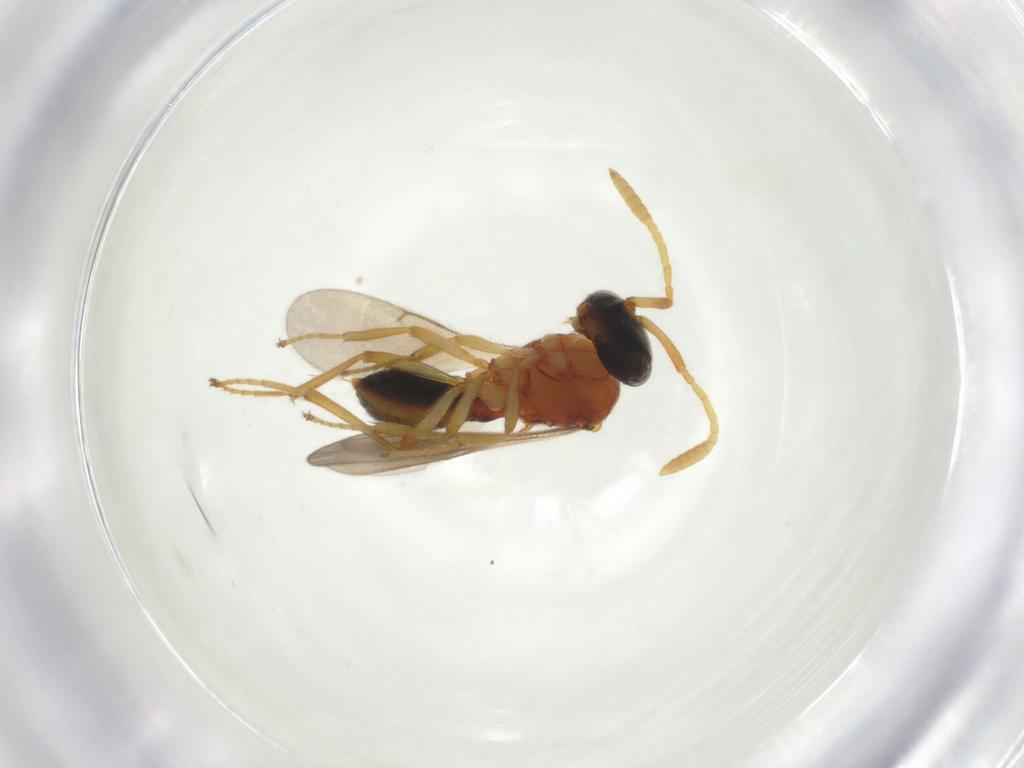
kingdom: Animalia
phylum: Arthropoda
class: Insecta
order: Hymenoptera
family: Scelionidae
